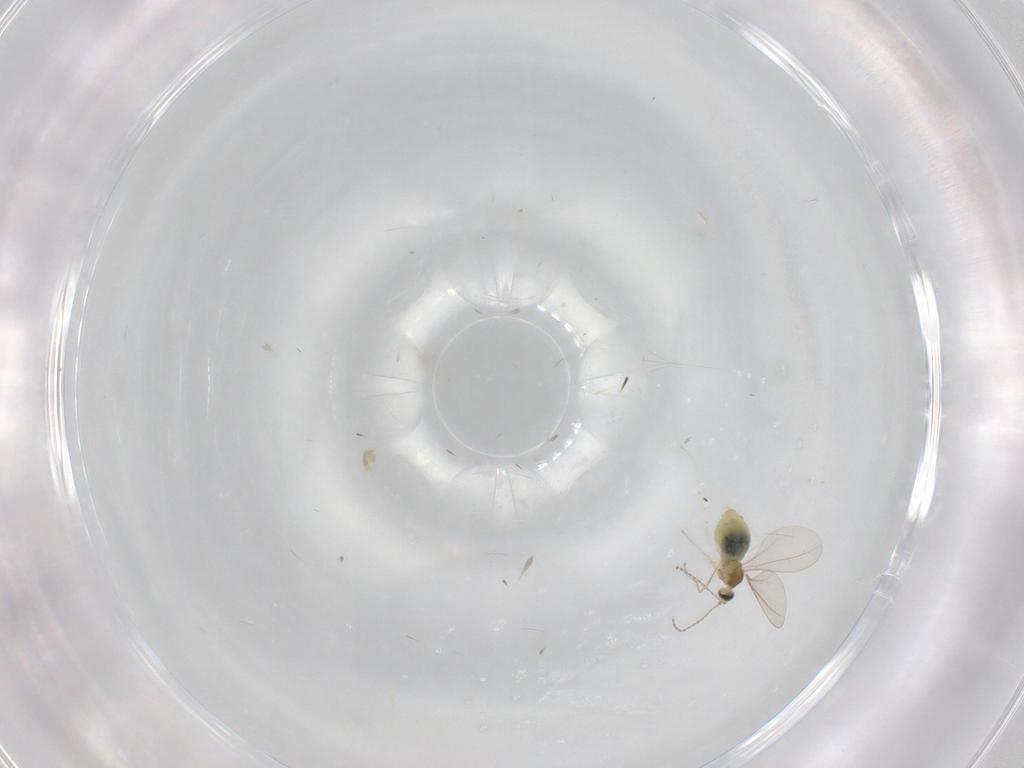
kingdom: Animalia
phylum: Arthropoda
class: Insecta
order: Diptera
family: Cecidomyiidae
